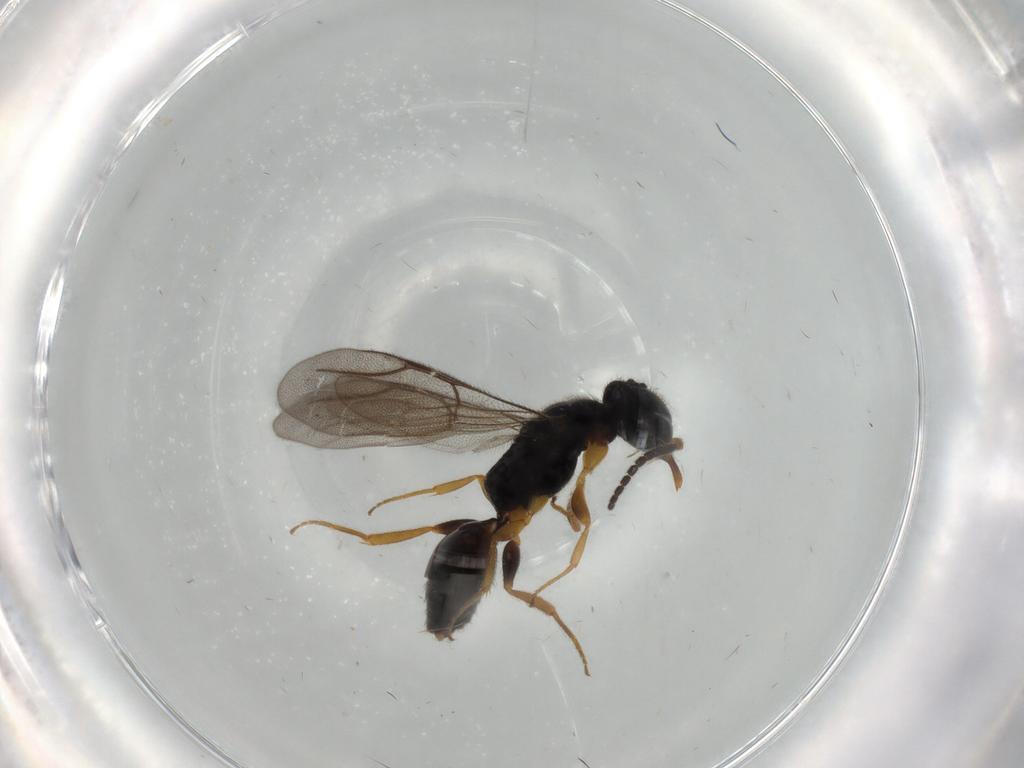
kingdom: Animalia
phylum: Arthropoda
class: Insecta
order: Hymenoptera
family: Bethylidae
